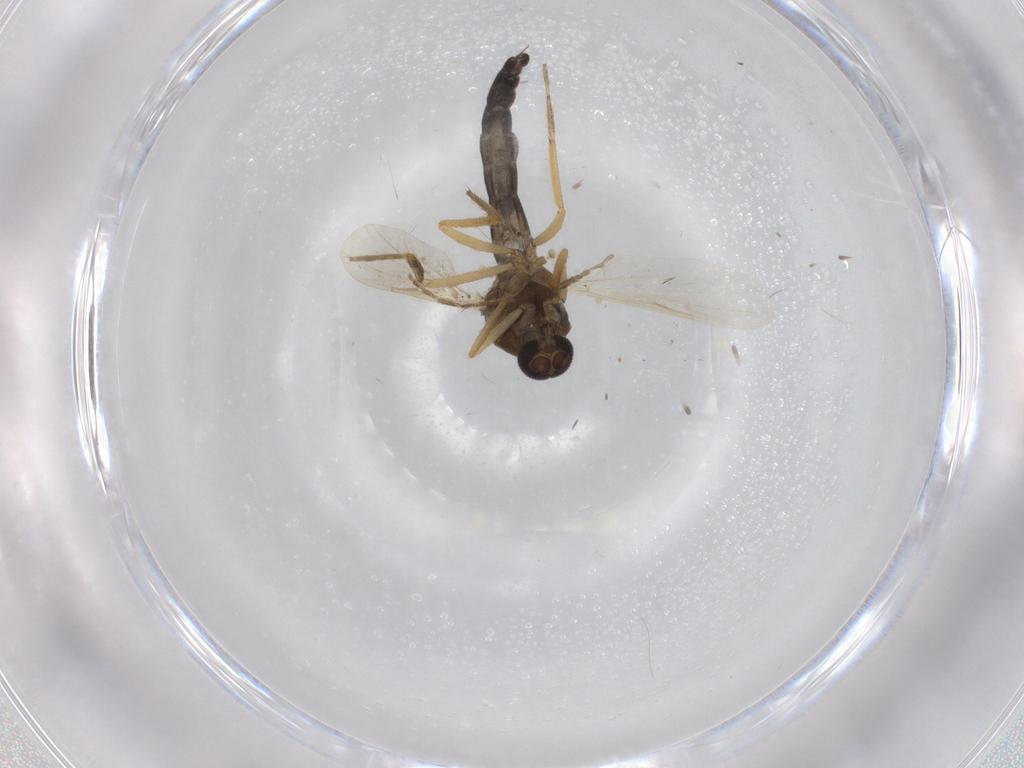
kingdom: Animalia
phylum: Arthropoda
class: Insecta
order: Diptera
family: Ceratopogonidae
